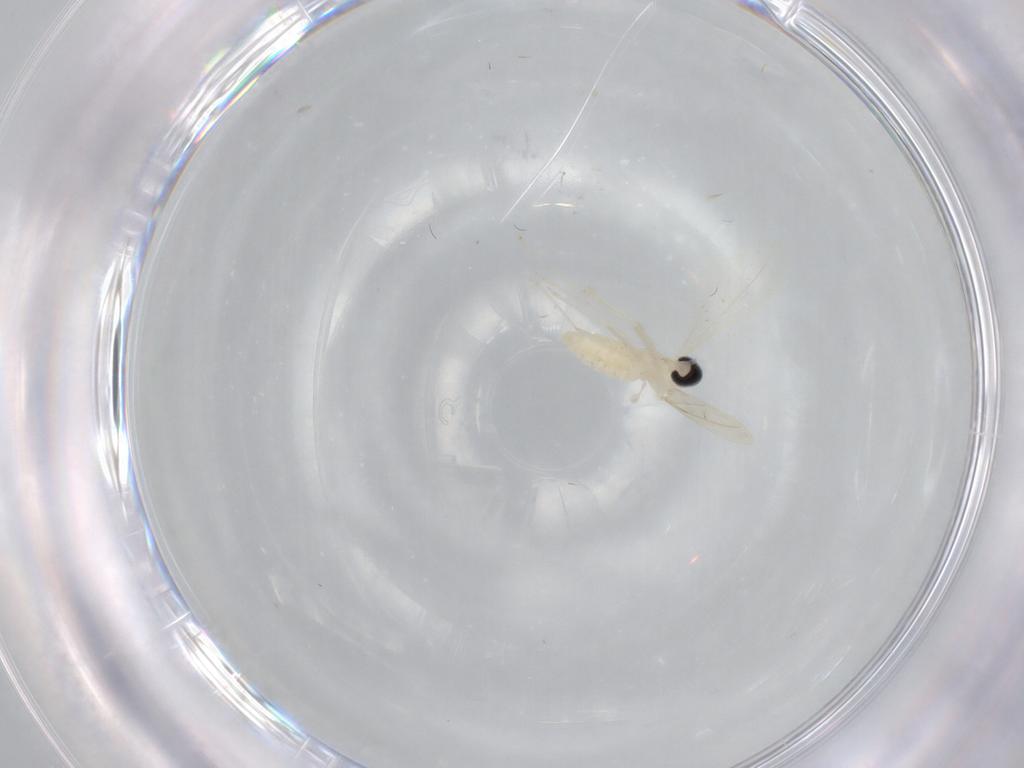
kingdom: Animalia
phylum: Arthropoda
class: Insecta
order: Diptera
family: Cecidomyiidae
